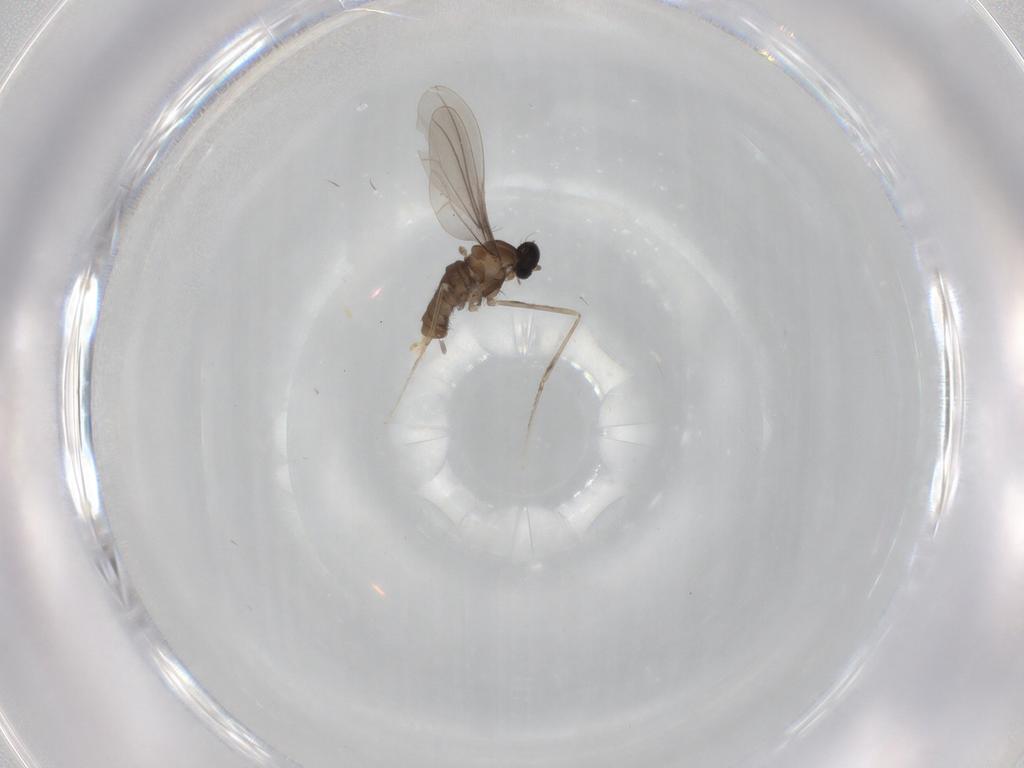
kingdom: Animalia
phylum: Arthropoda
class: Insecta
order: Diptera
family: Cecidomyiidae
